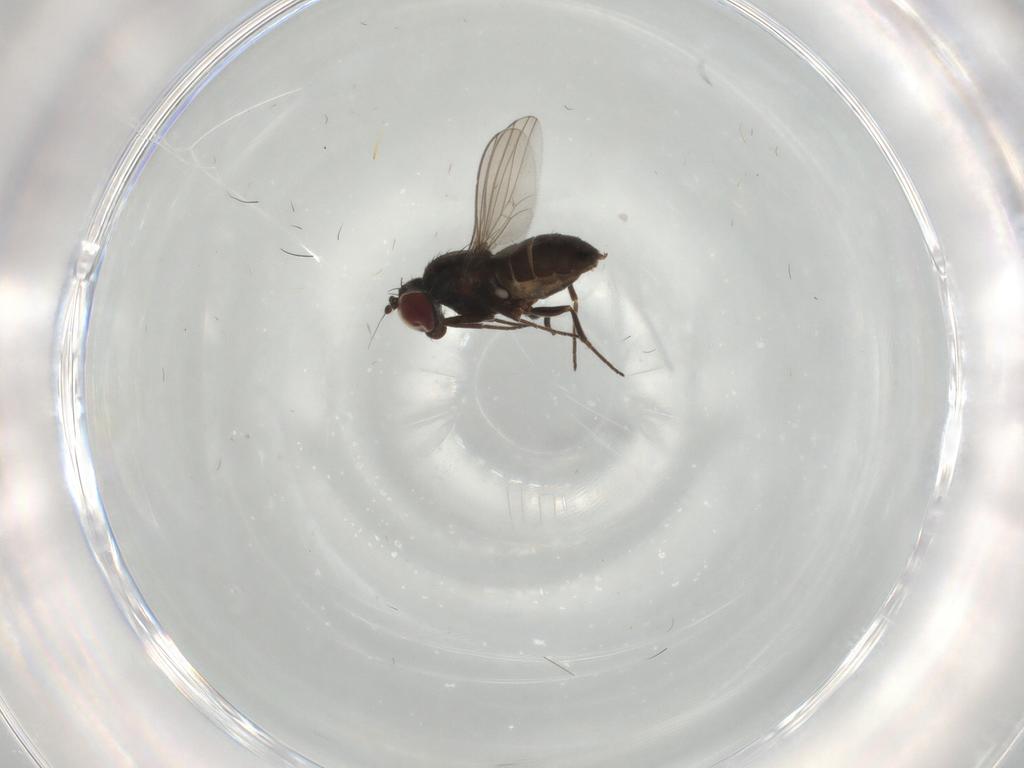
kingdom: Animalia
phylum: Arthropoda
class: Insecta
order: Diptera
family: Dolichopodidae
